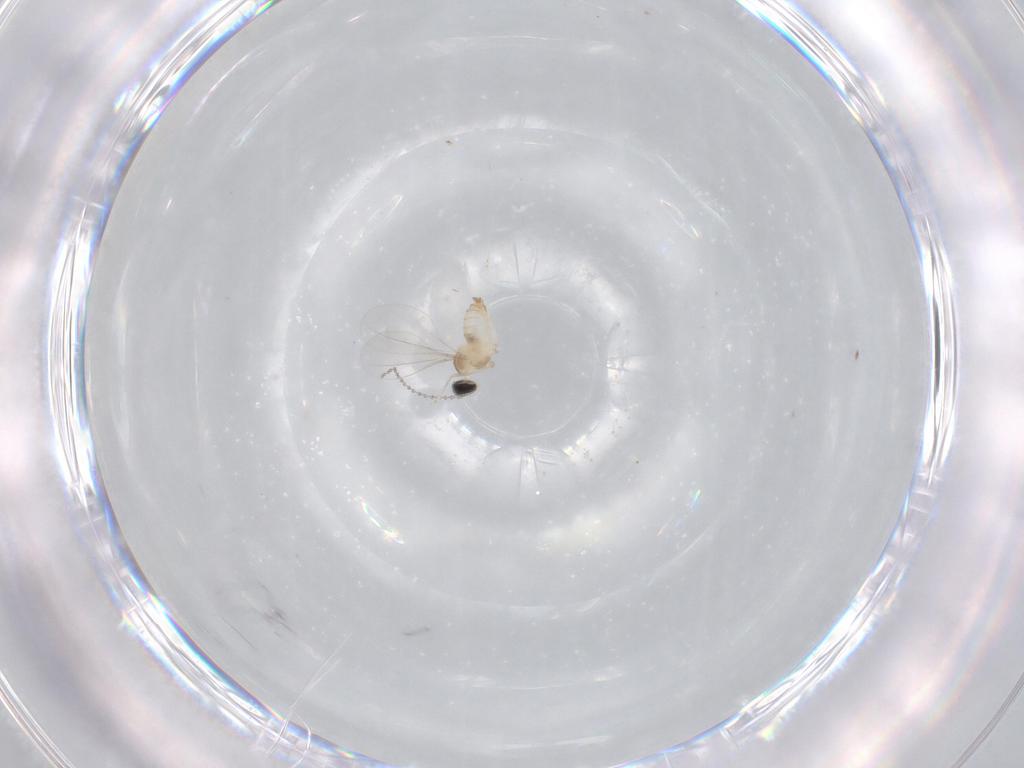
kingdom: Animalia
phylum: Arthropoda
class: Insecta
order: Diptera
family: Cecidomyiidae
